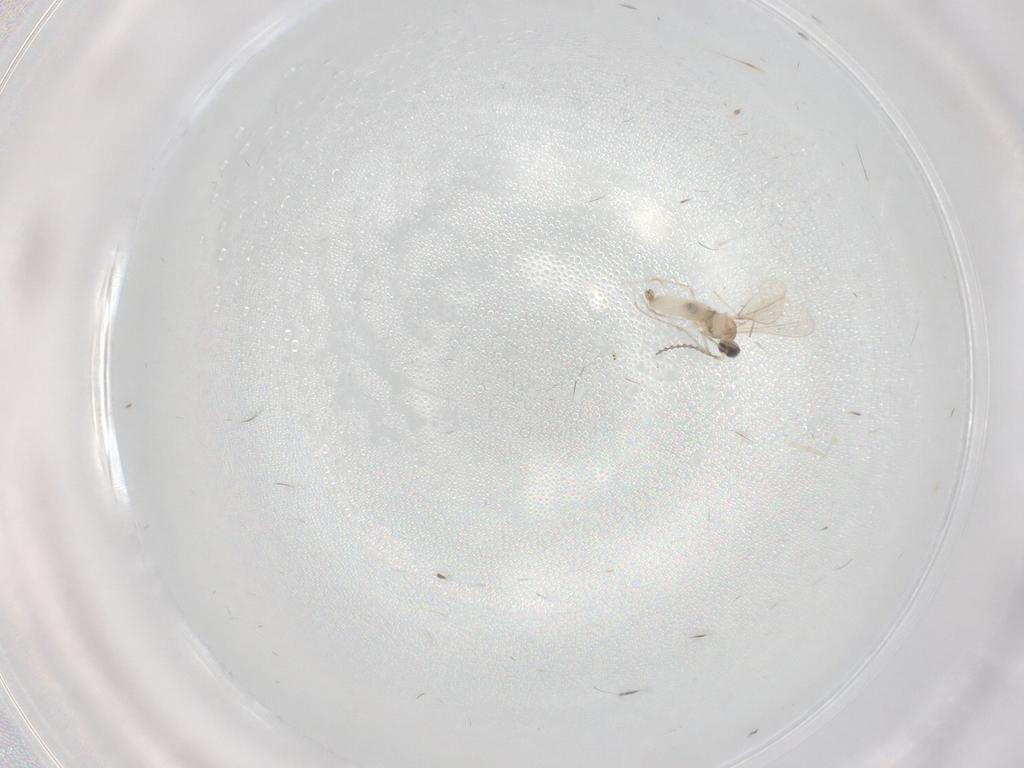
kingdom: Animalia
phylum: Arthropoda
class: Insecta
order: Diptera
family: Cecidomyiidae
